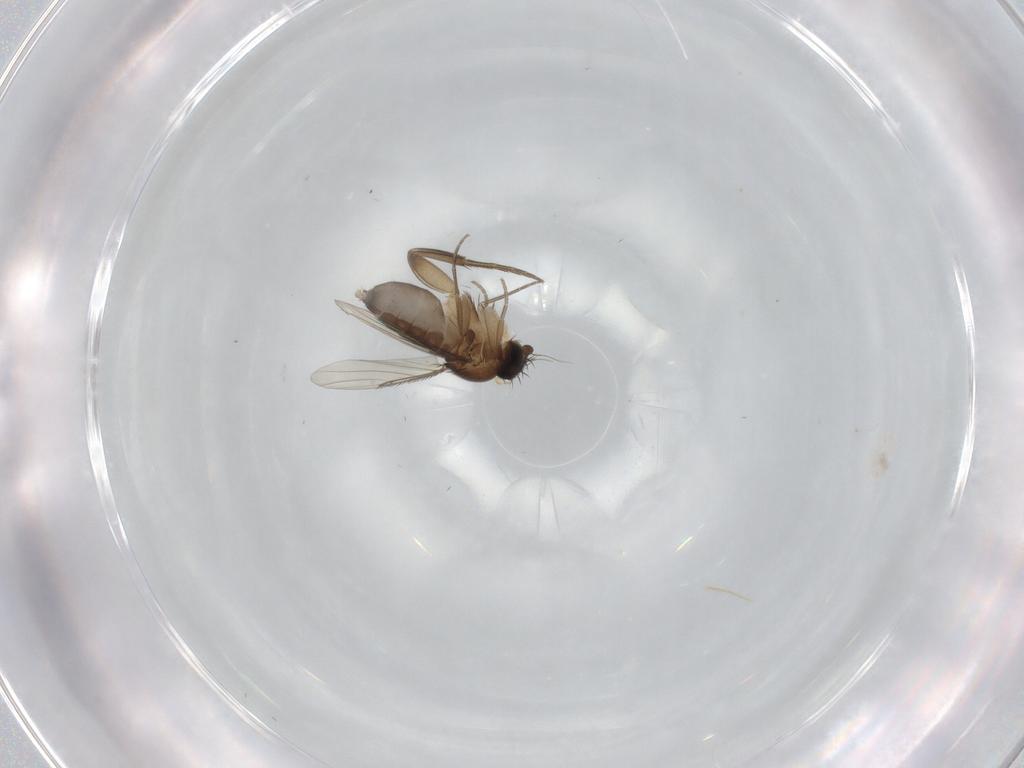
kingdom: Animalia
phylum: Arthropoda
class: Insecta
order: Diptera
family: Phoridae
